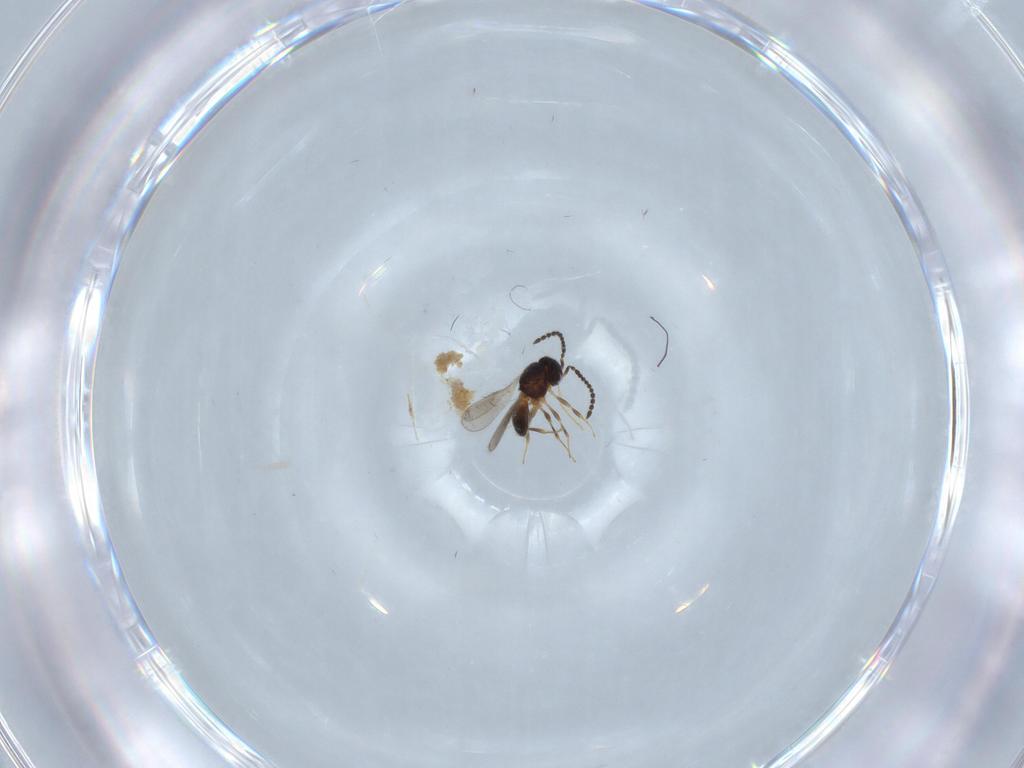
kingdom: Animalia
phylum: Arthropoda
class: Insecta
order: Hymenoptera
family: Scelionidae
